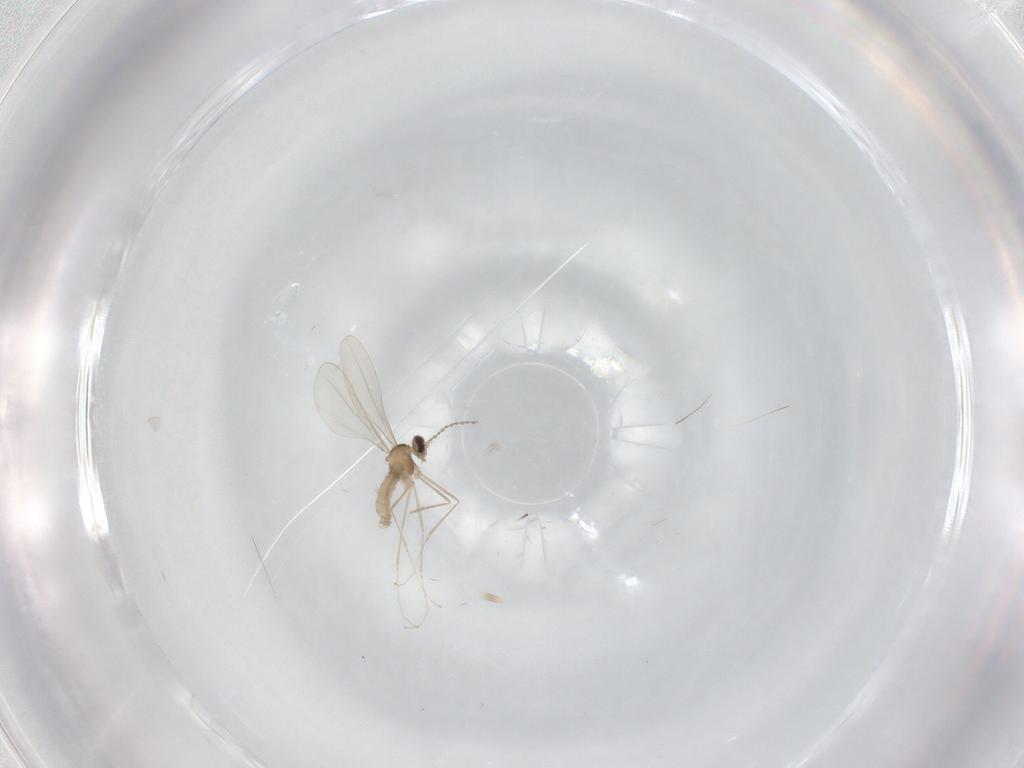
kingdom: Animalia
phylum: Arthropoda
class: Insecta
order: Diptera
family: Cecidomyiidae
